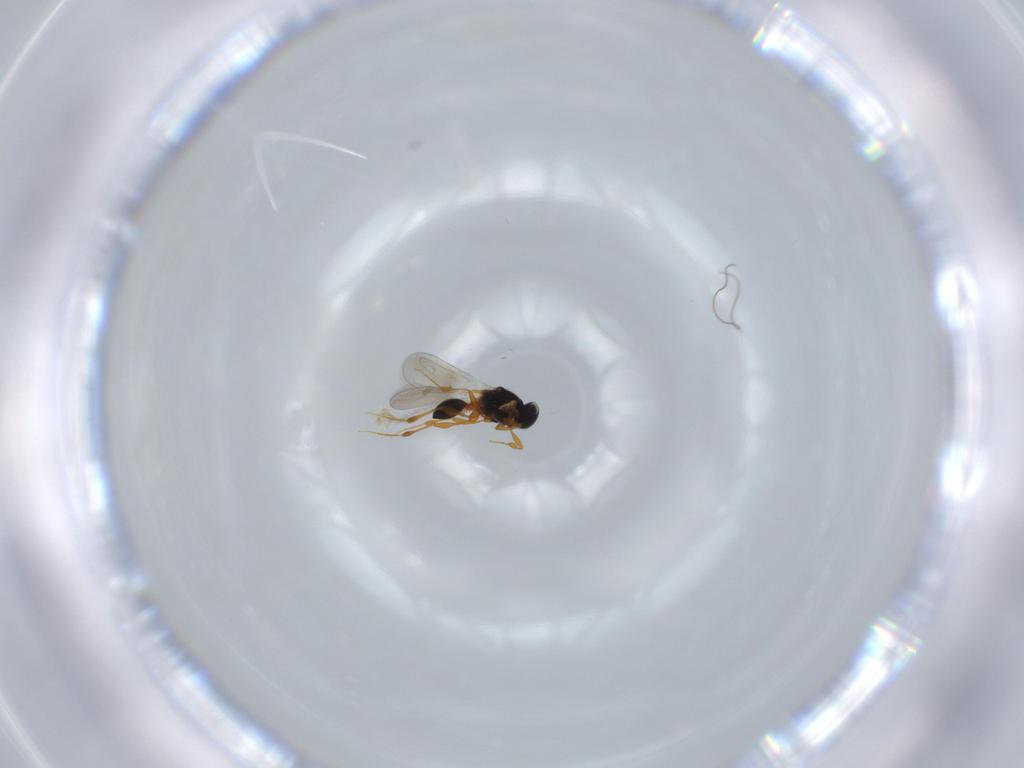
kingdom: Animalia
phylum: Arthropoda
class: Insecta
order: Hymenoptera
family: Platygastridae
